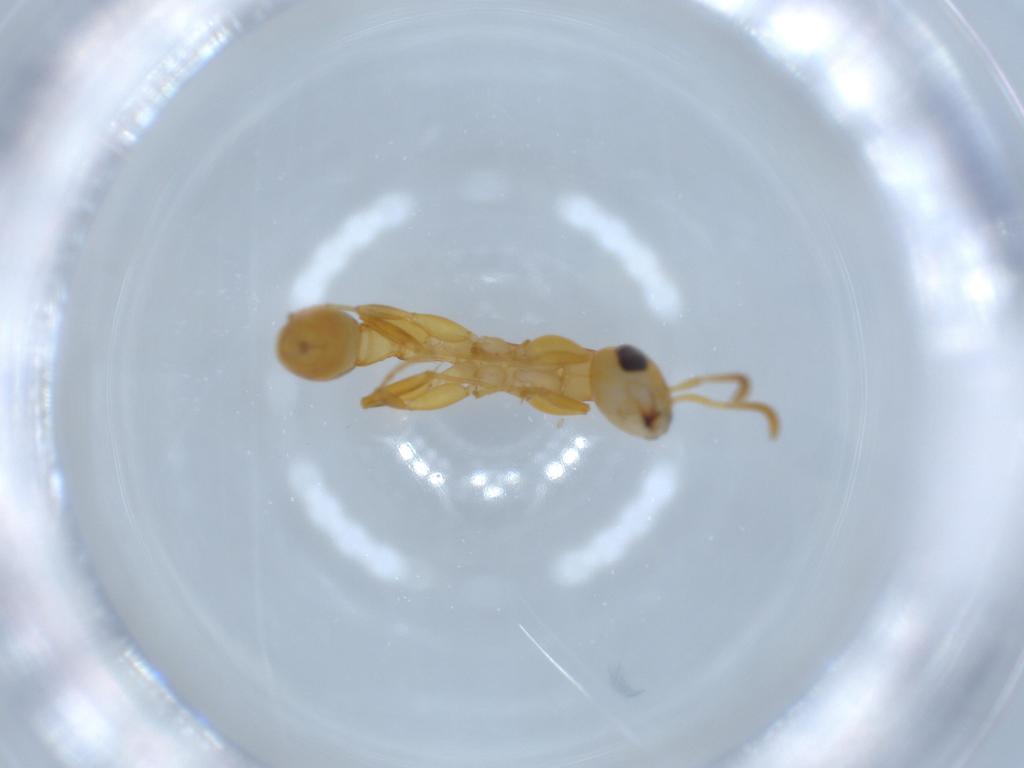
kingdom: Animalia
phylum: Arthropoda
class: Insecta
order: Hymenoptera
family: Formicidae
